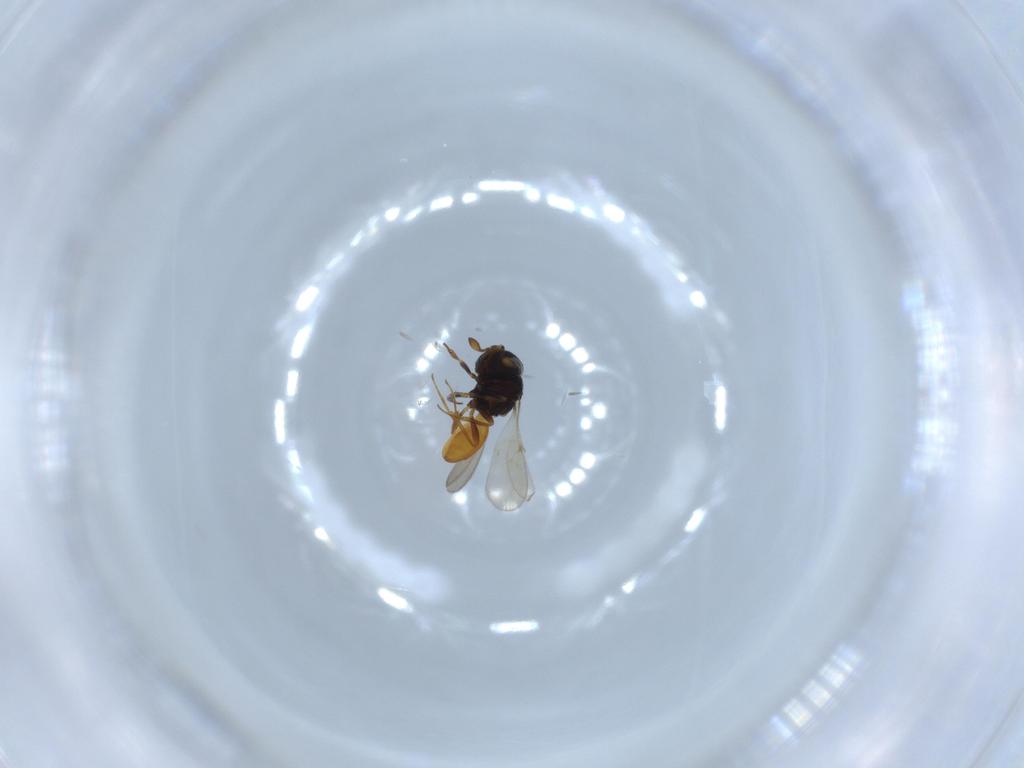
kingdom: Animalia
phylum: Arthropoda
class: Insecta
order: Hymenoptera
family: Scelionidae
